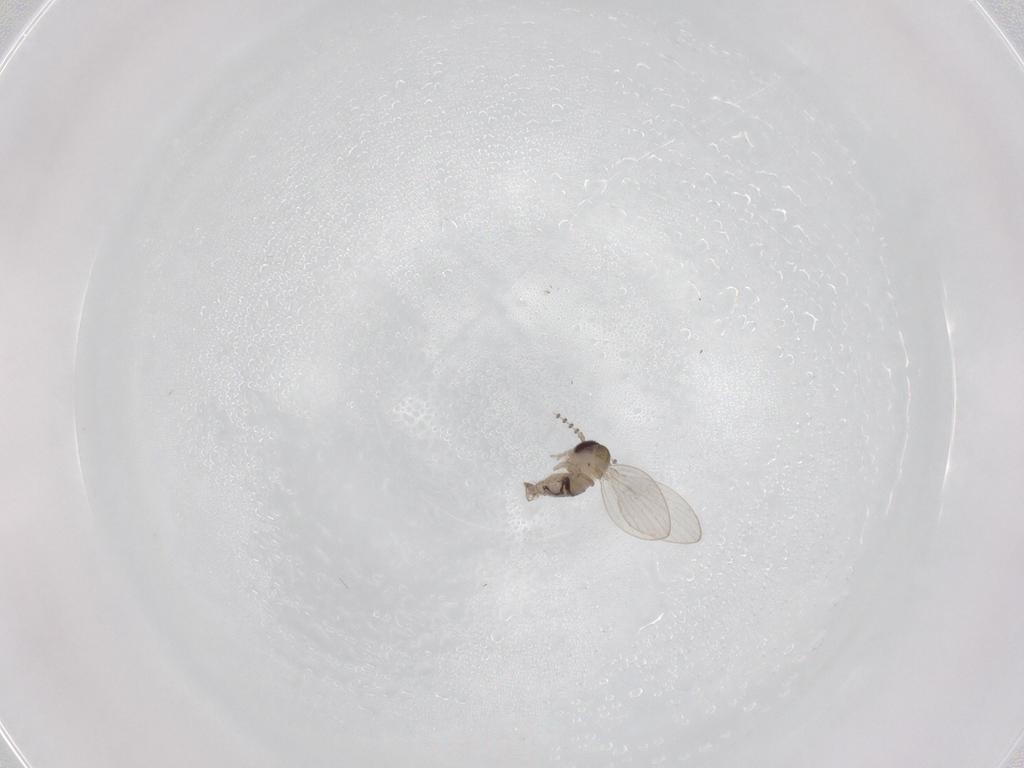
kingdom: Animalia
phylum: Arthropoda
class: Insecta
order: Diptera
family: Psychodidae
